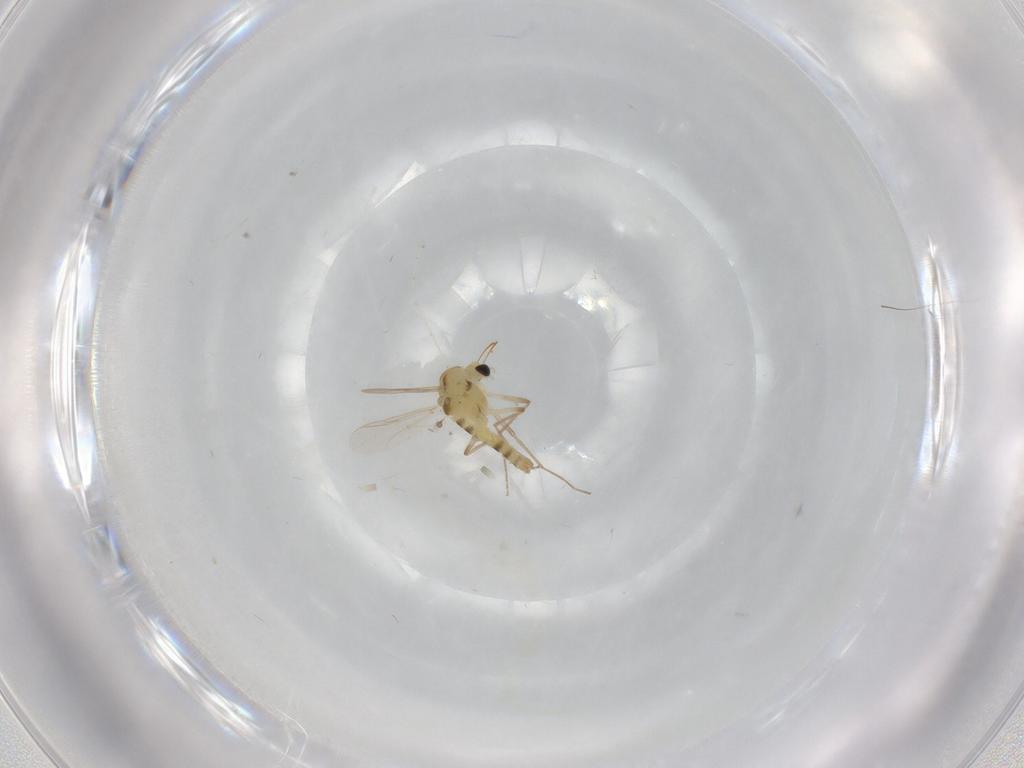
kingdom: Animalia
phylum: Arthropoda
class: Insecta
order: Diptera
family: Cecidomyiidae
